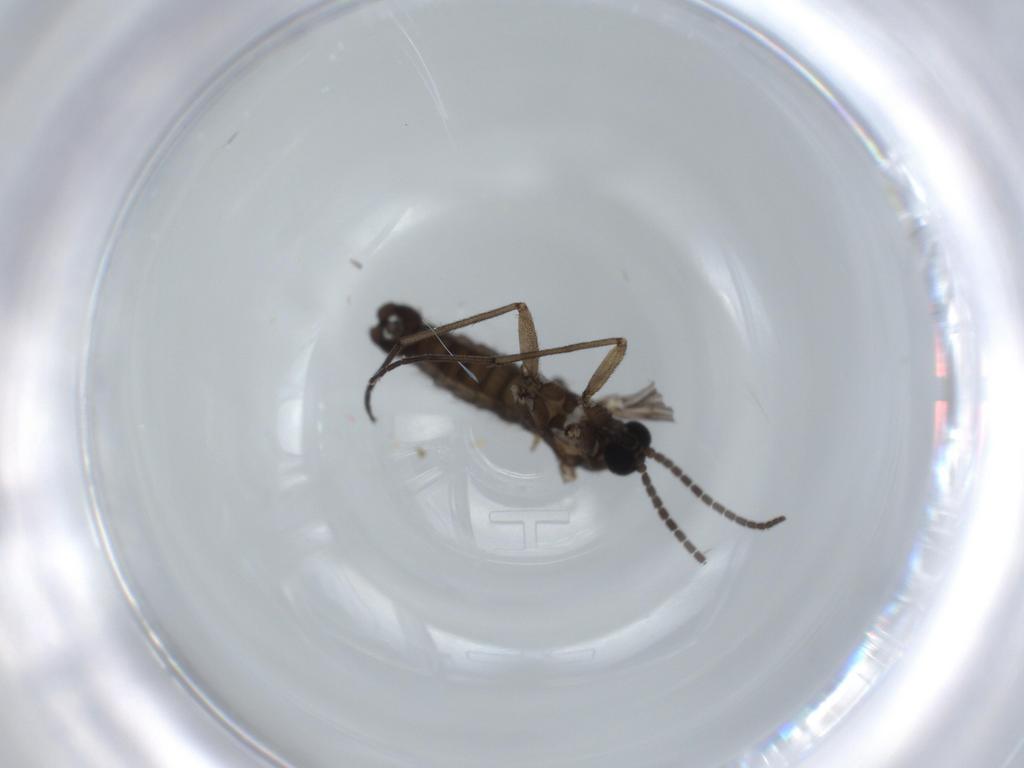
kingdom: Animalia
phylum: Arthropoda
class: Insecta
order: Diptera
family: Sciaridae
